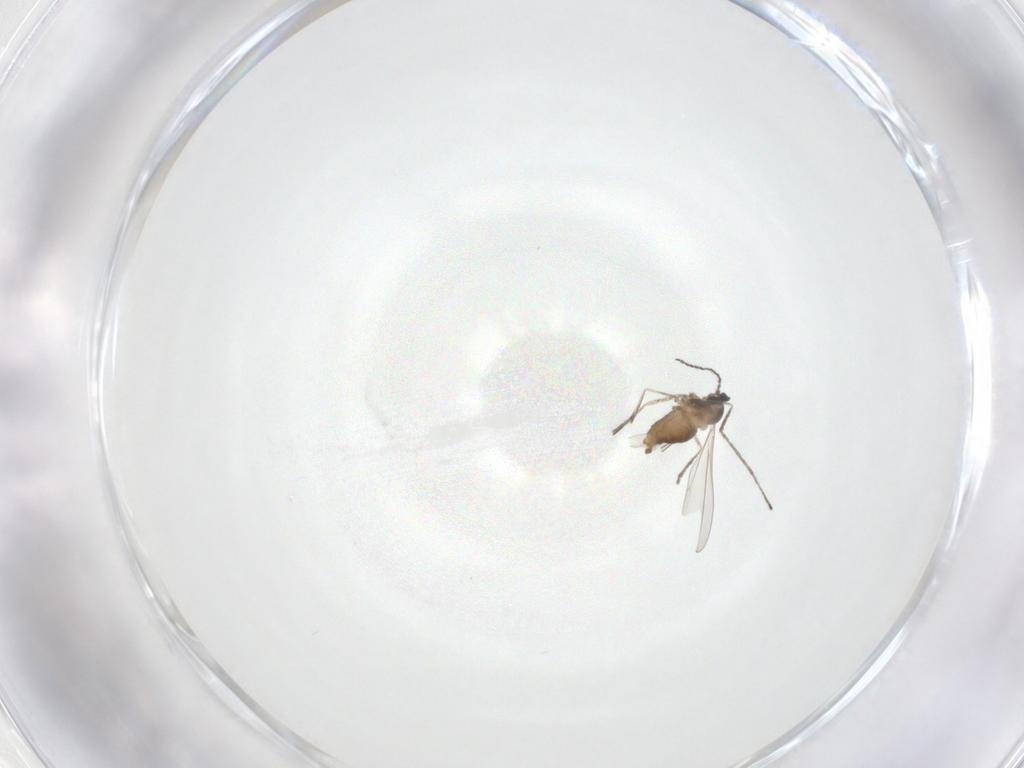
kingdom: Animalia
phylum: Arthropoda
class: Insecta
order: Diptera
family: Cecidomyiidae
